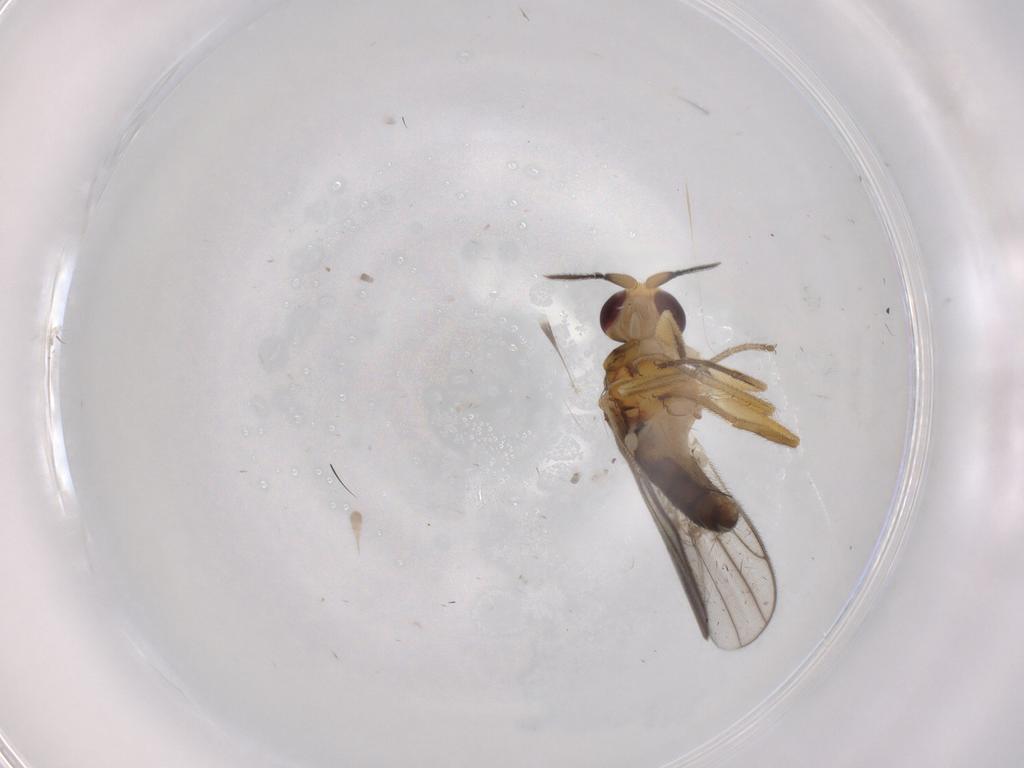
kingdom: Animalia
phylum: Arthropoda
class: Insecta
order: Diptera
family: Chloropidae
